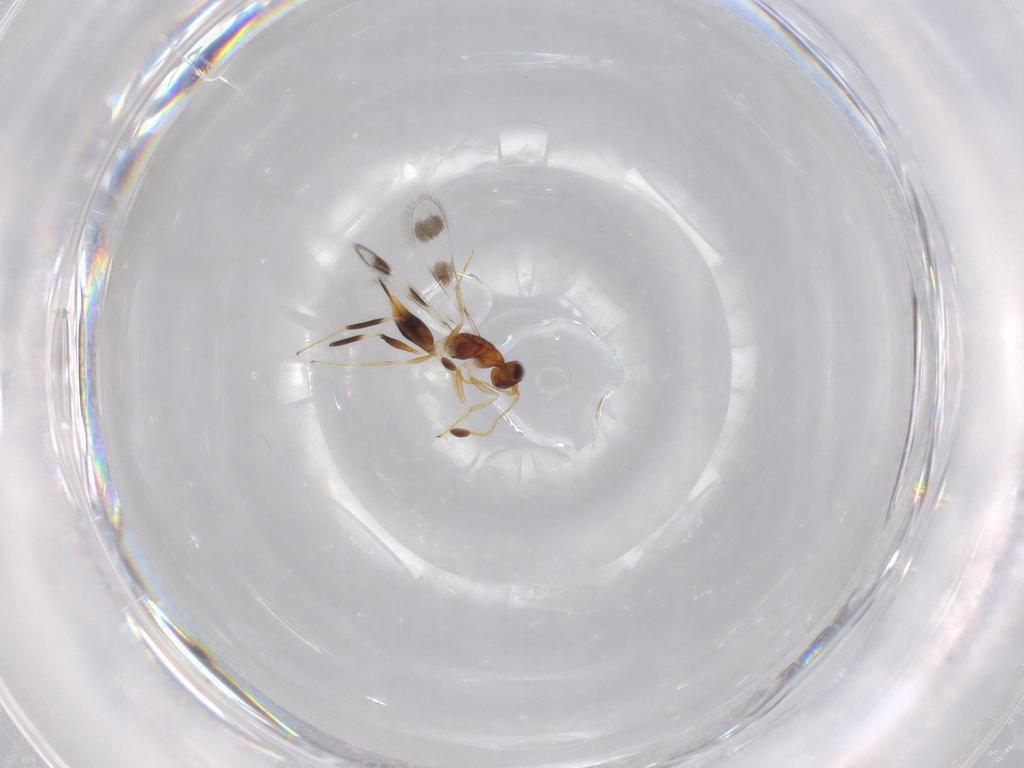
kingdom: Animalia
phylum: Arthropoda
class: Insecta
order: Hymenoptera
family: Mymaridae
